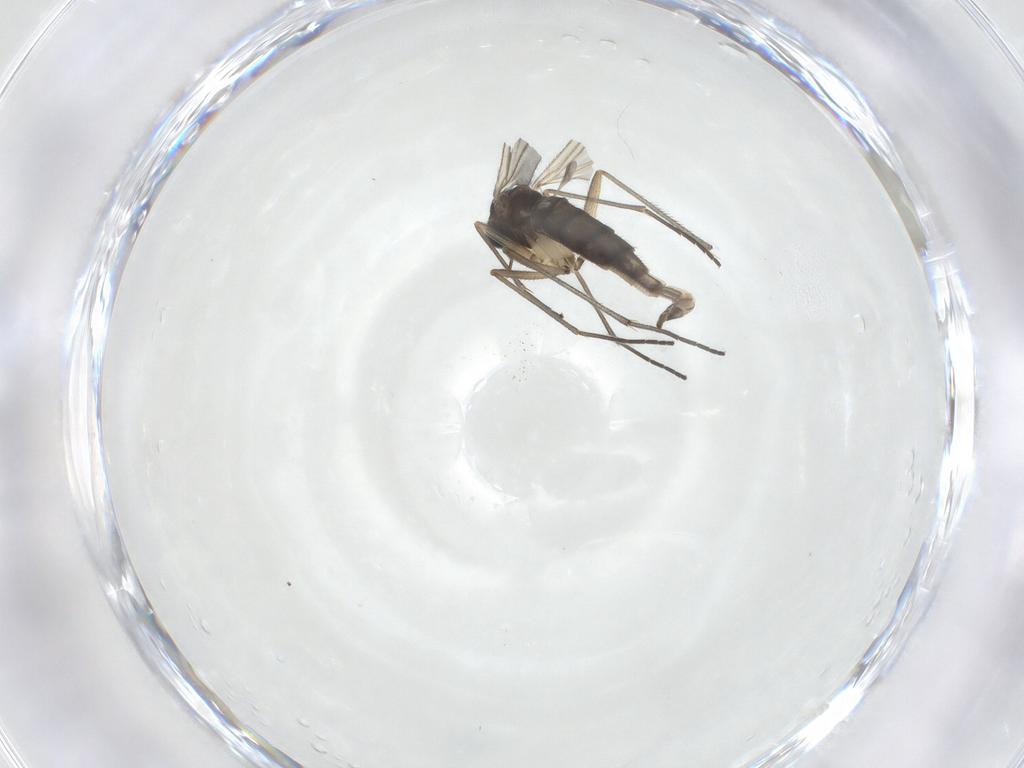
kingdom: Animalia
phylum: Arthropoda
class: Insecta
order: Diptera
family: Sciaridae
